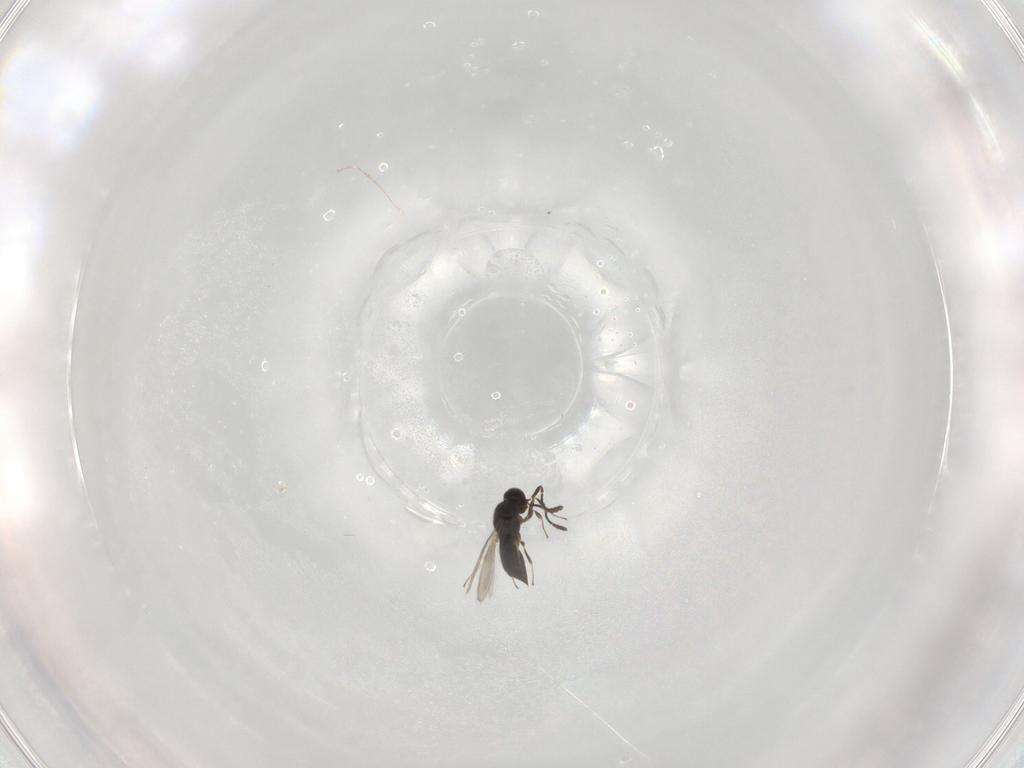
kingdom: Animalia
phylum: Arthropoda
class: Insecta
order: Hymenoptera
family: Scelionidae
